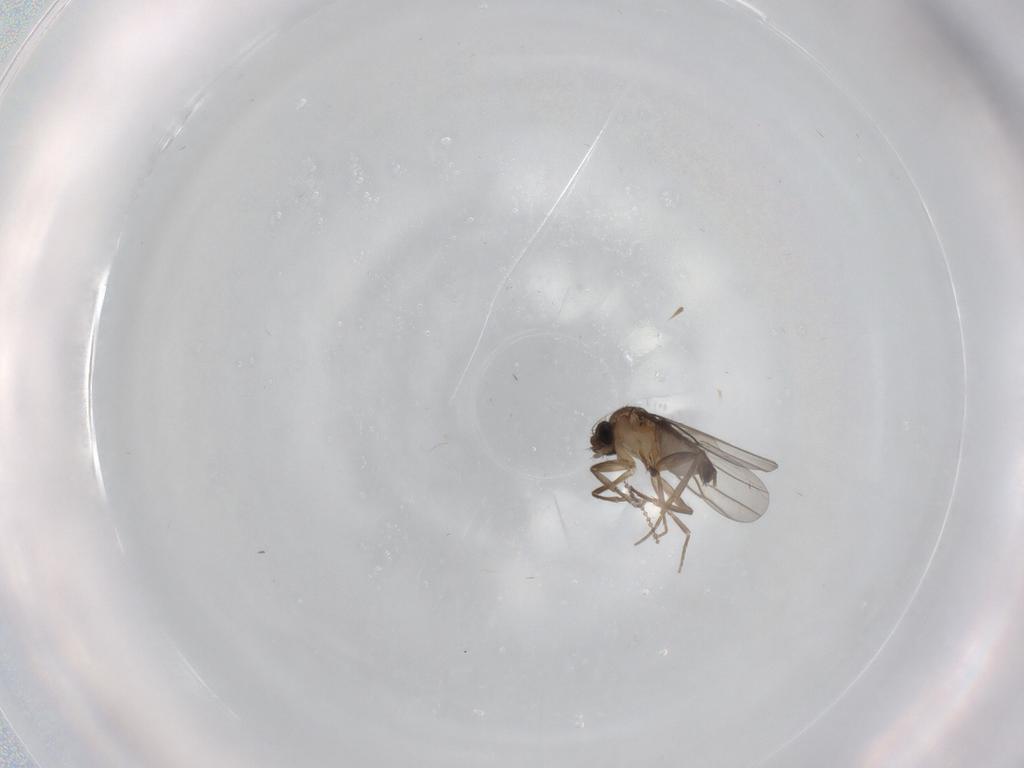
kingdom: Animalia
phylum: Arthropoda
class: Insecta
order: Diptera
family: Cecidomyiidae
